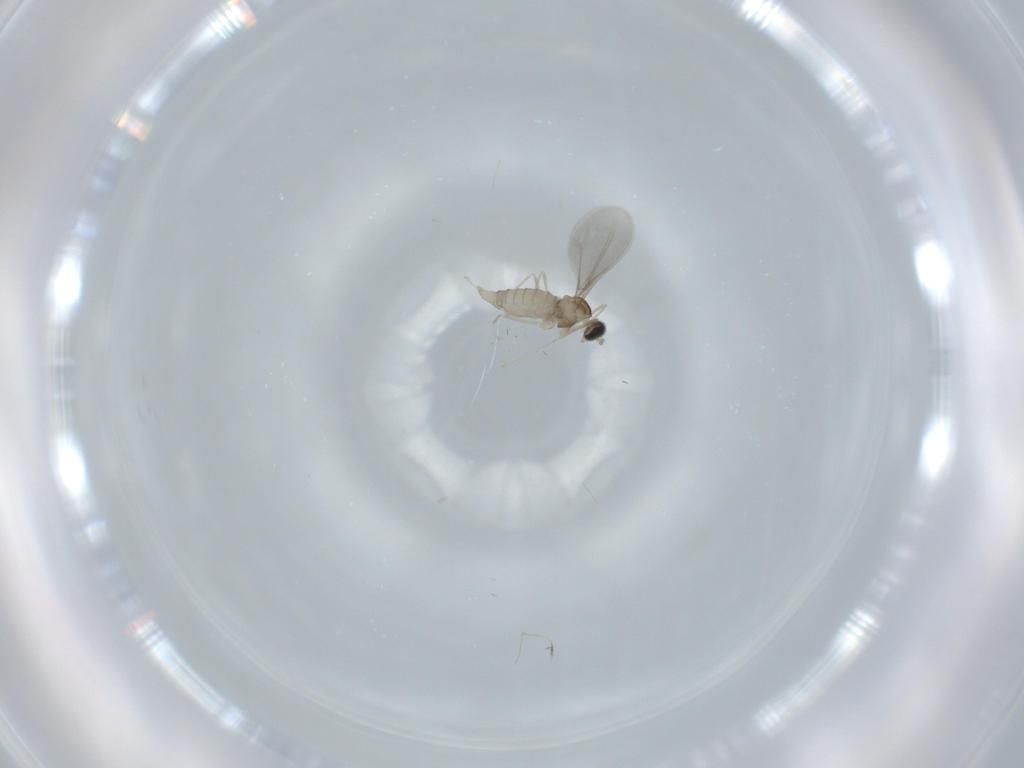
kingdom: Animalia
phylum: Arthropoda
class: Insecta
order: Diptera
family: Cecidomyiidae
